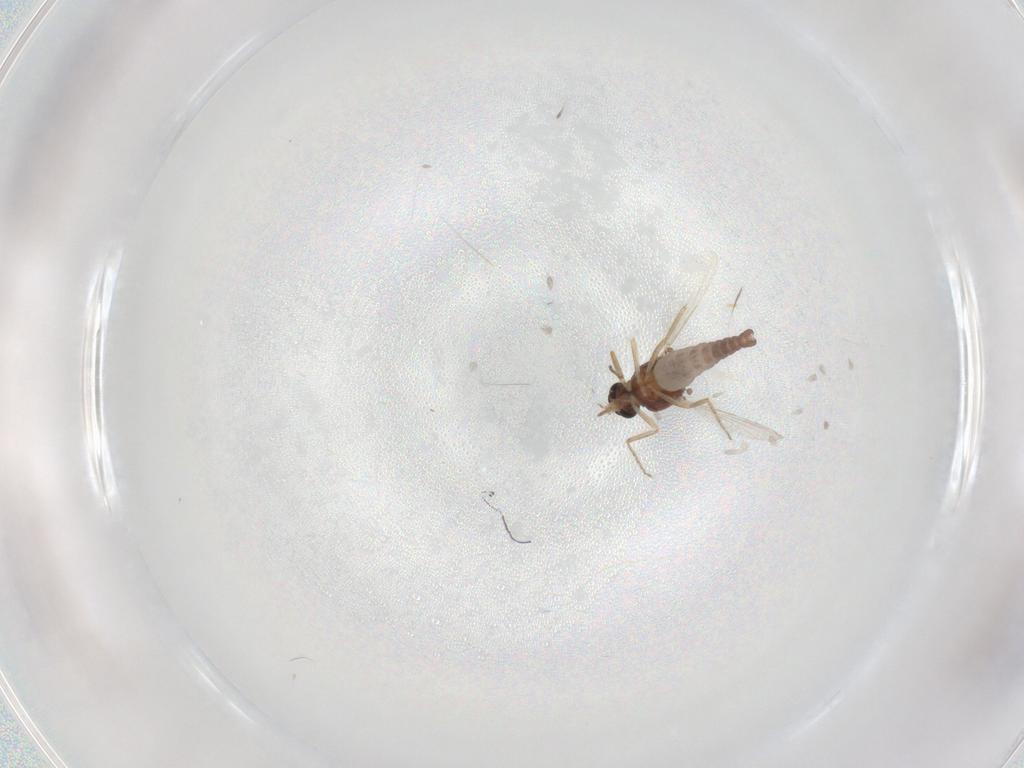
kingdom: Animalia
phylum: Arthropoda
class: Insecta
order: Diptera
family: Ceratopogonidae
